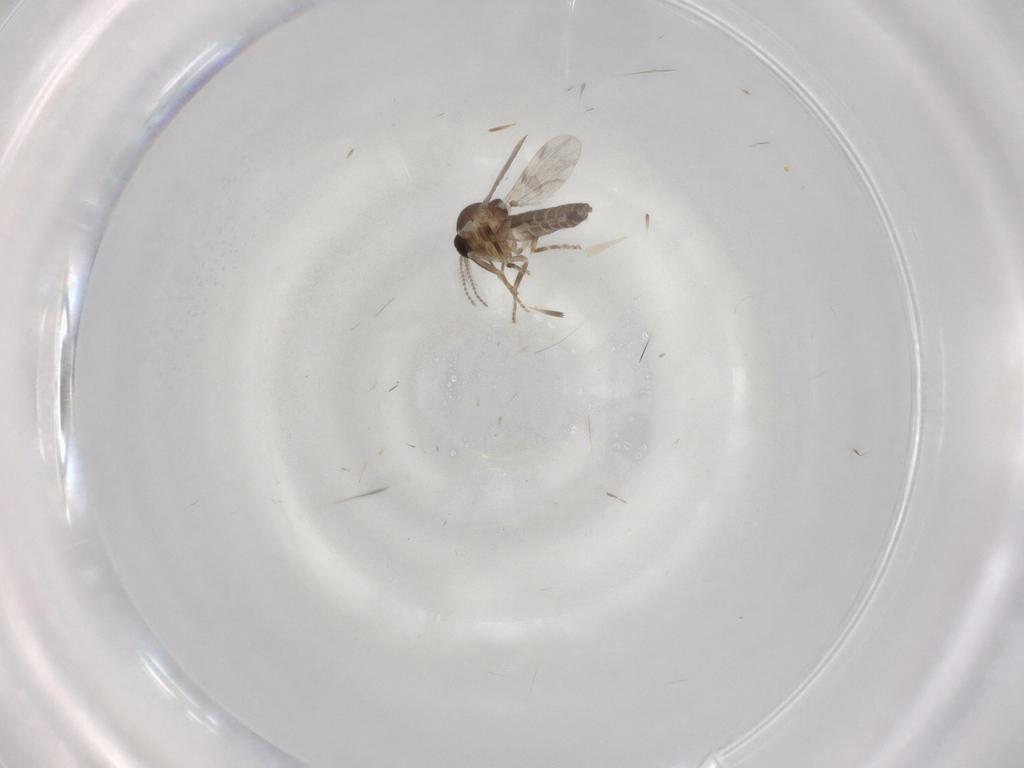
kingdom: Animalia
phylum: Arthropoda
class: Insecta
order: Diptera
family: Ceratopogonidae
